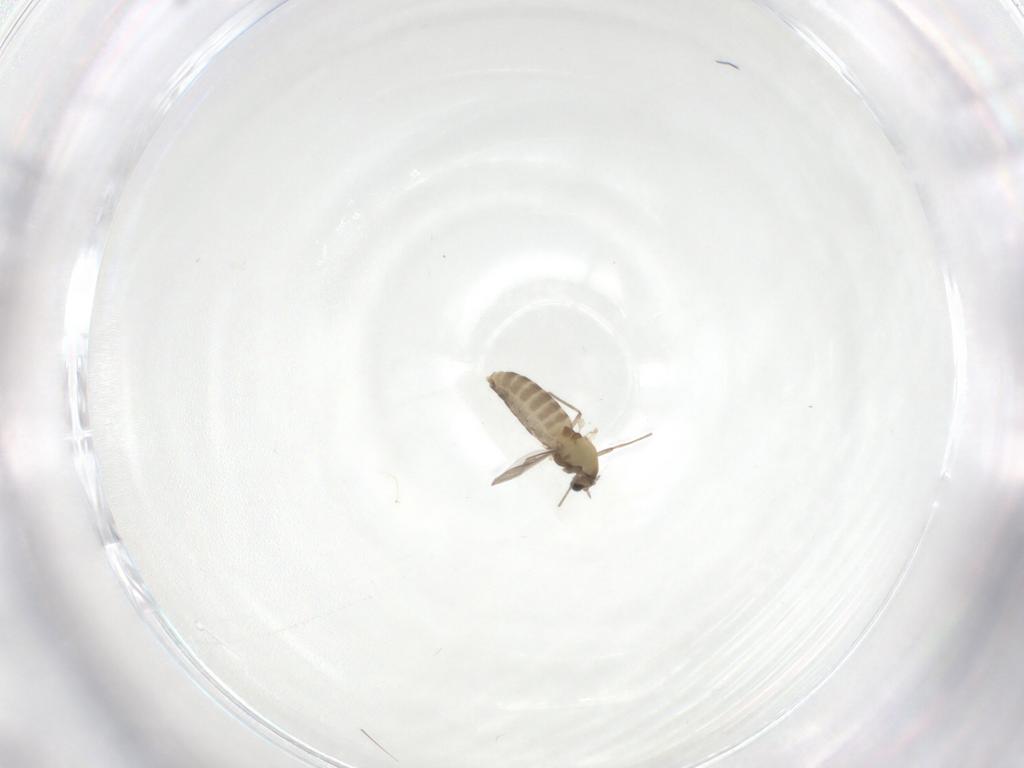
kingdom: Animalia
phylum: Arthropoda
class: Insecta
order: Diptera
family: Chironomidae
